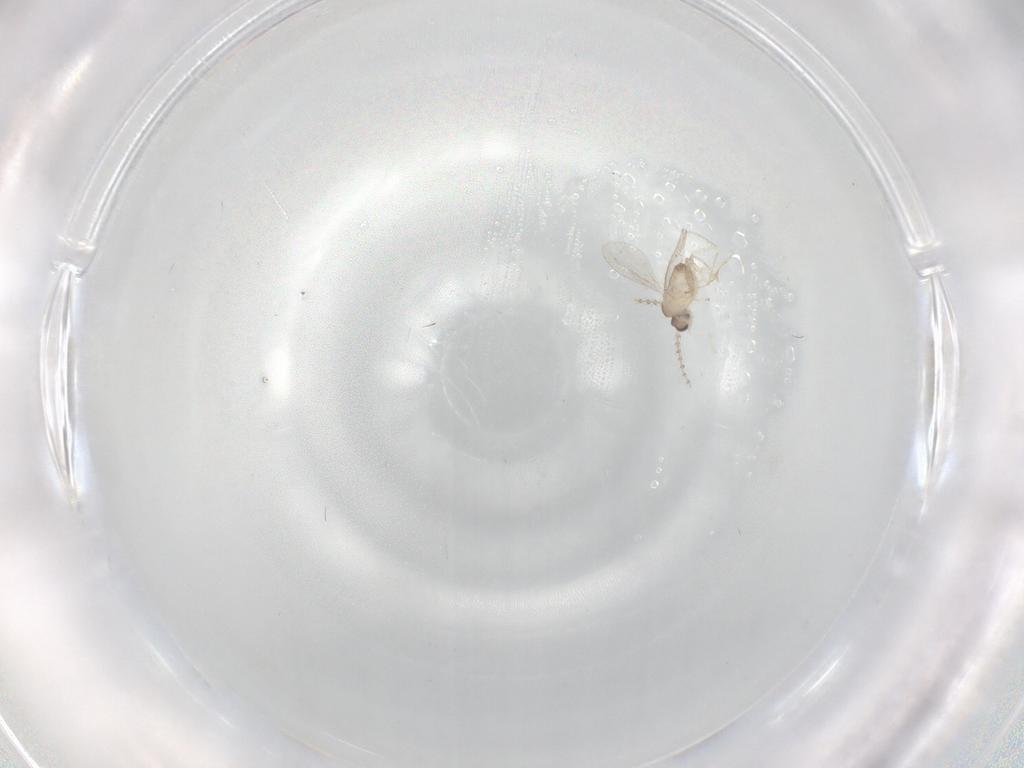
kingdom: Animalia
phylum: Arthropoda
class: Insecta
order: Diptera
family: Cecidomyiidae
